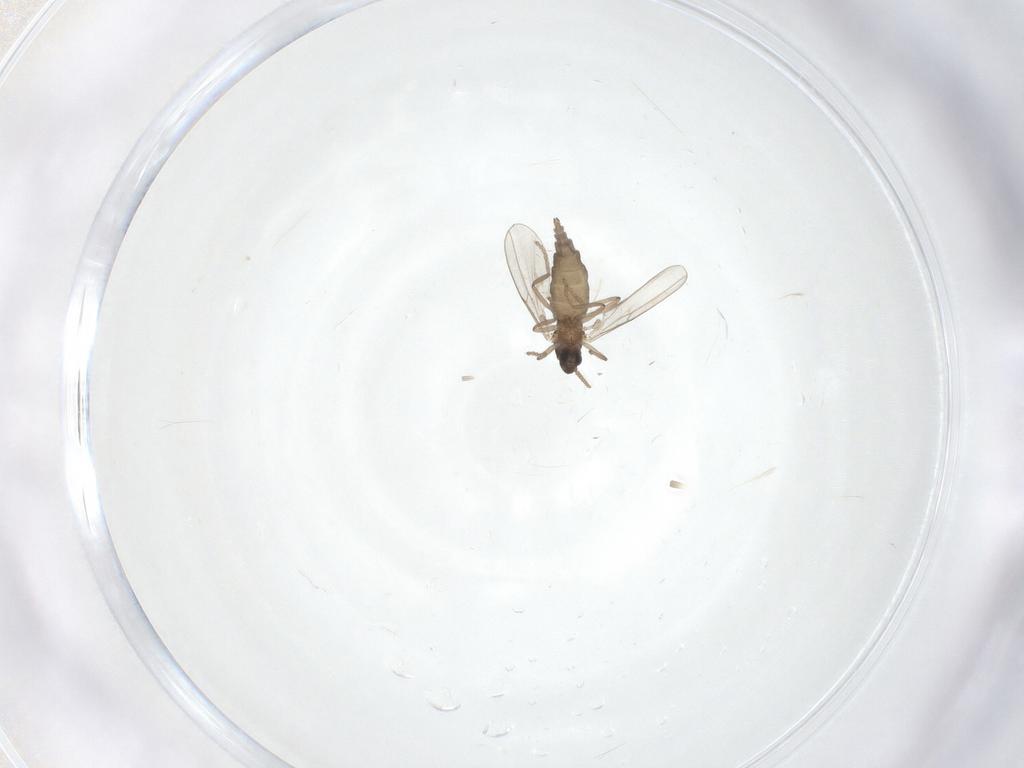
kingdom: Animalia
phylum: Arthropoda
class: Insecta
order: Diptera
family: Cecidomyiidae
